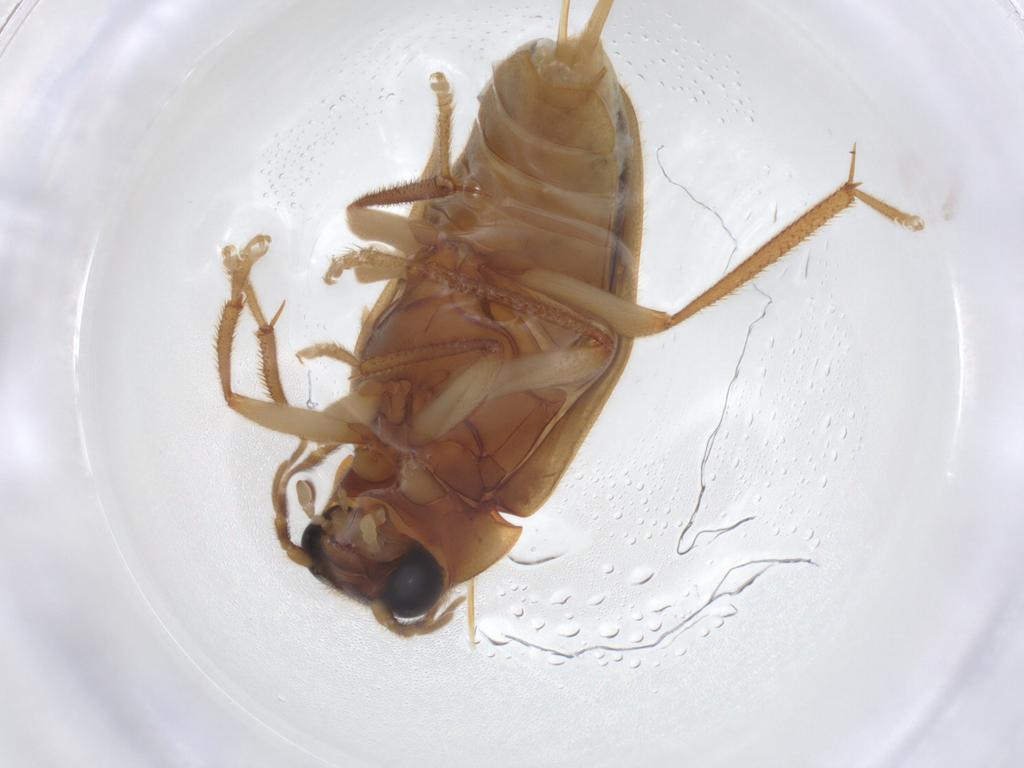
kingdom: Animalia
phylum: Arthropoda
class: Insecta
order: Coleoptera
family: Ptilodactylidae
